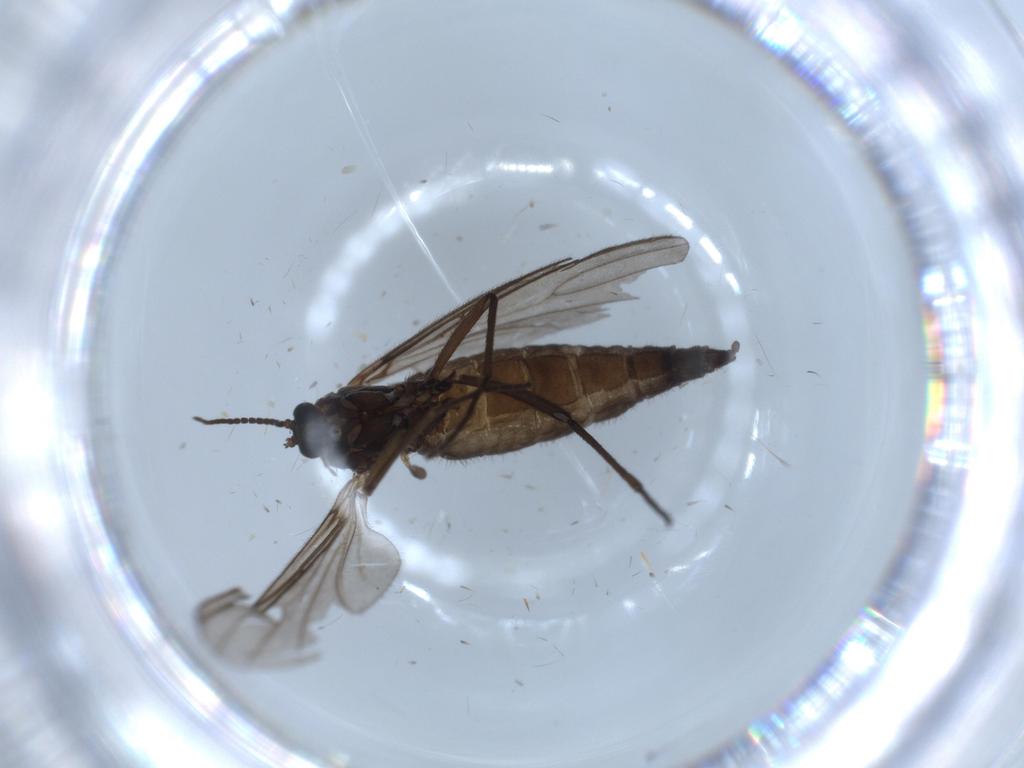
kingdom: Animalia
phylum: Arthropoda
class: Insecta
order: Diptera
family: Sciaridae
